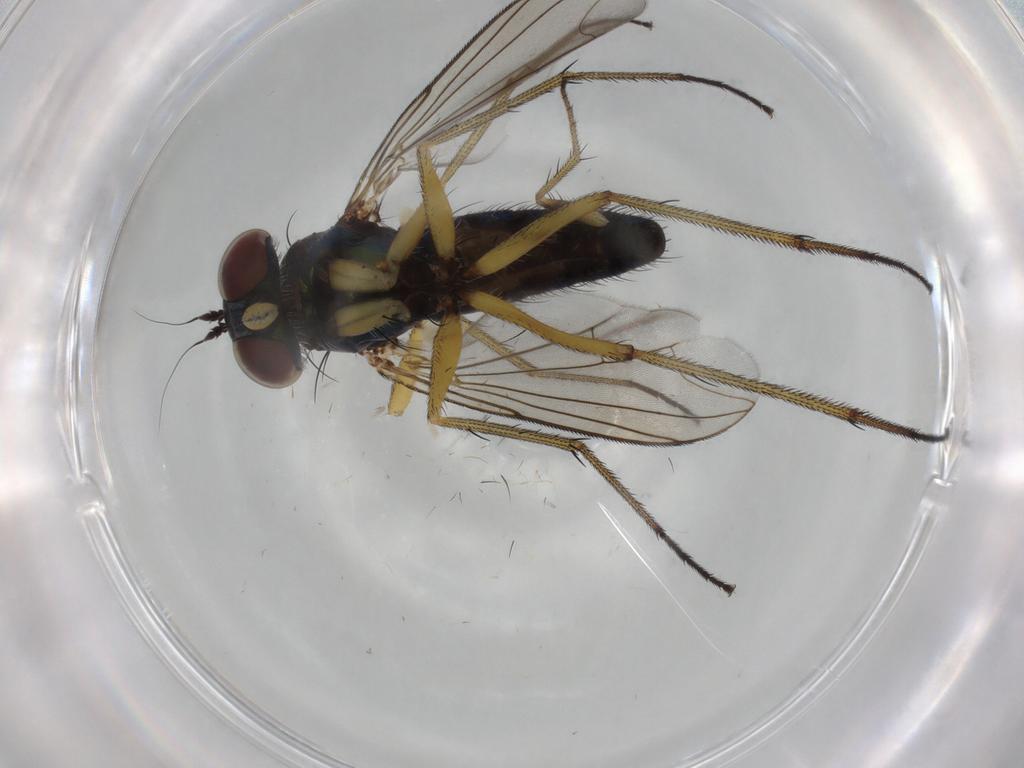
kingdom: Animalia
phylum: Arthropoda
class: Insecta
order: Diptera
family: Dolichopodidae
